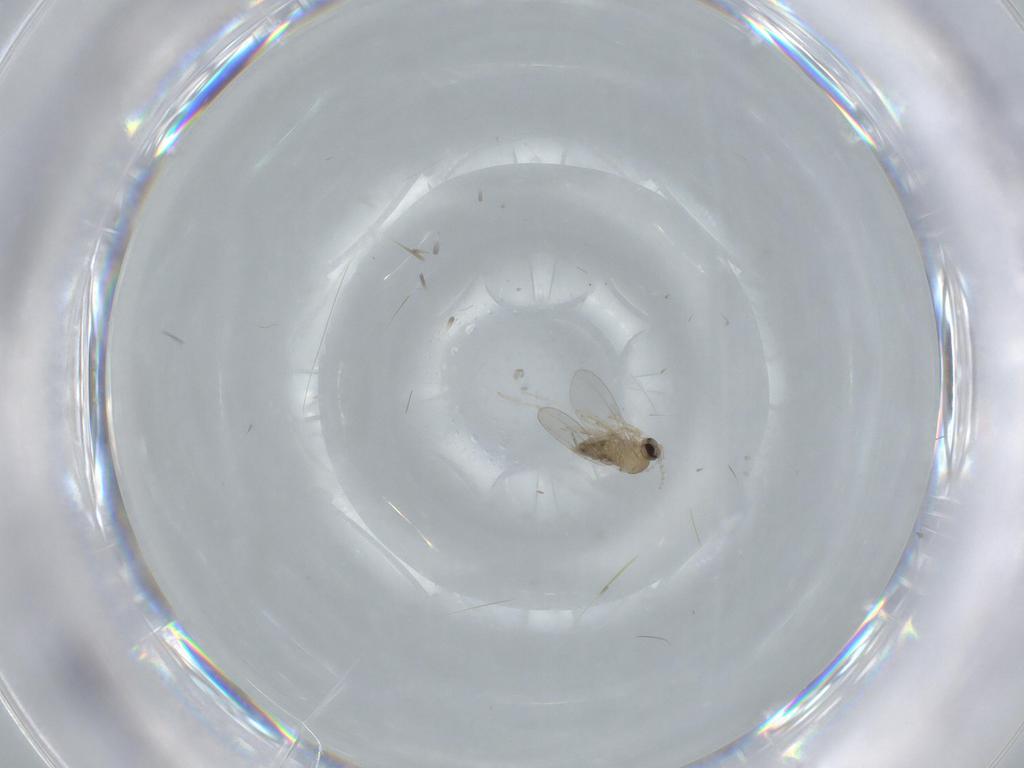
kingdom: Animalia
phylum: Arthropoda
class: Insecta
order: Diptera
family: Cecidomyiidae
